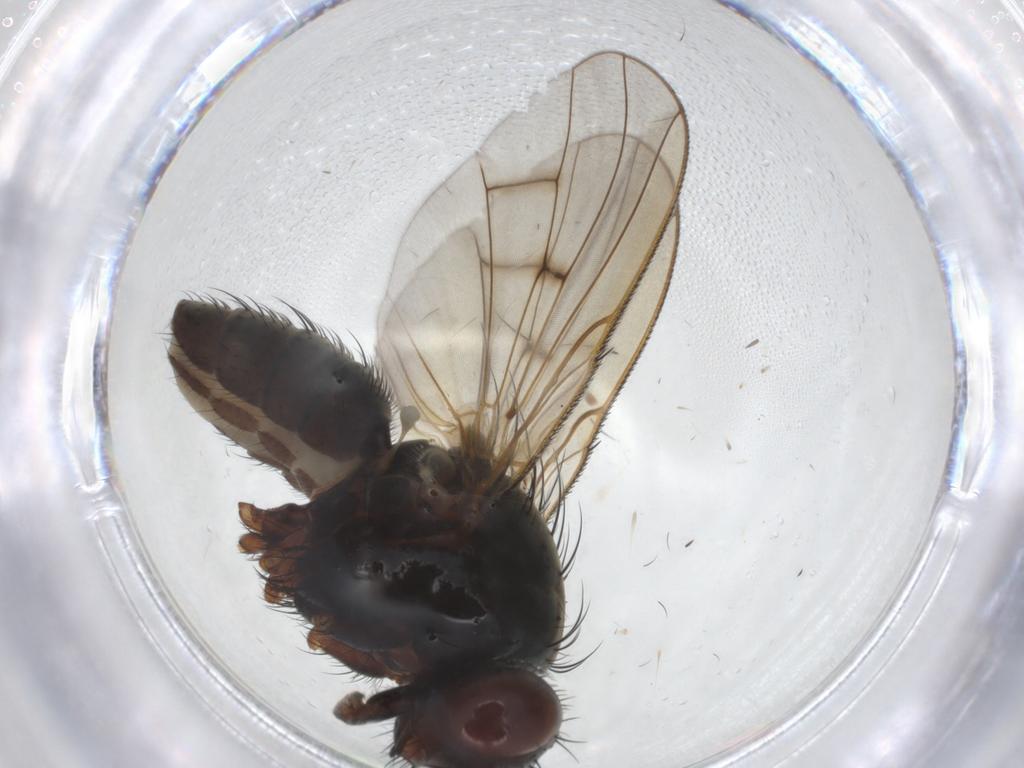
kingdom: Animalia
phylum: Arthropoda
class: Insecta
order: Diptera
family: Anthomyiidae
